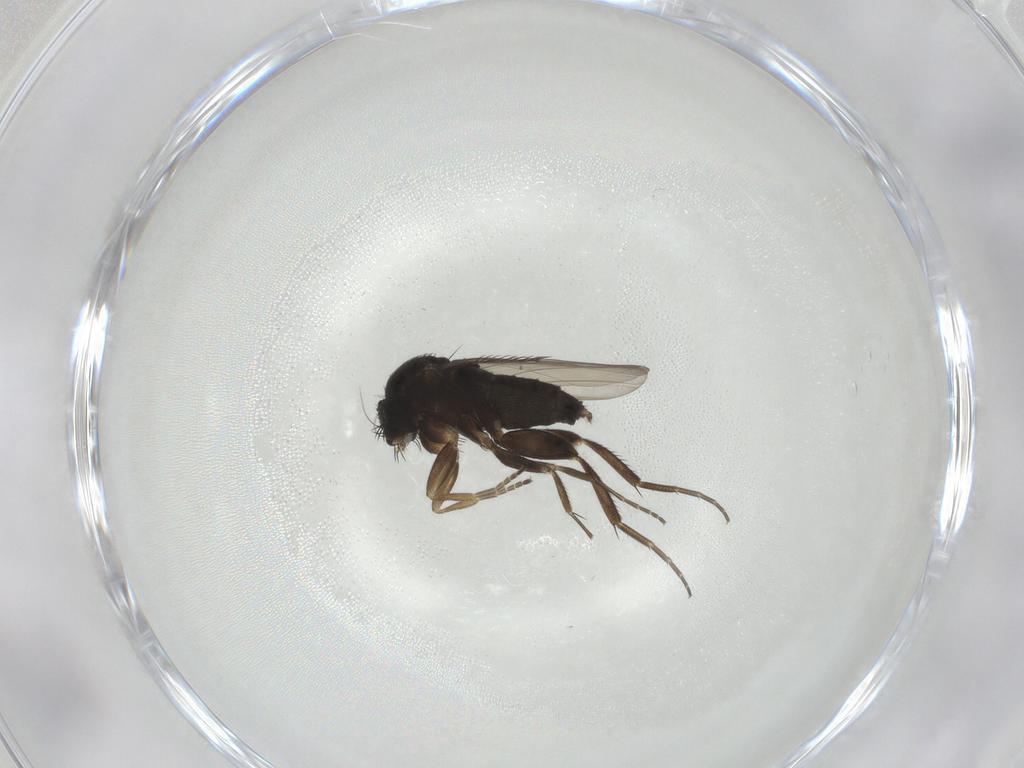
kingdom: Animalia
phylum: Arthropoda
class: Insecta
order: Diptera
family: Phoridae
